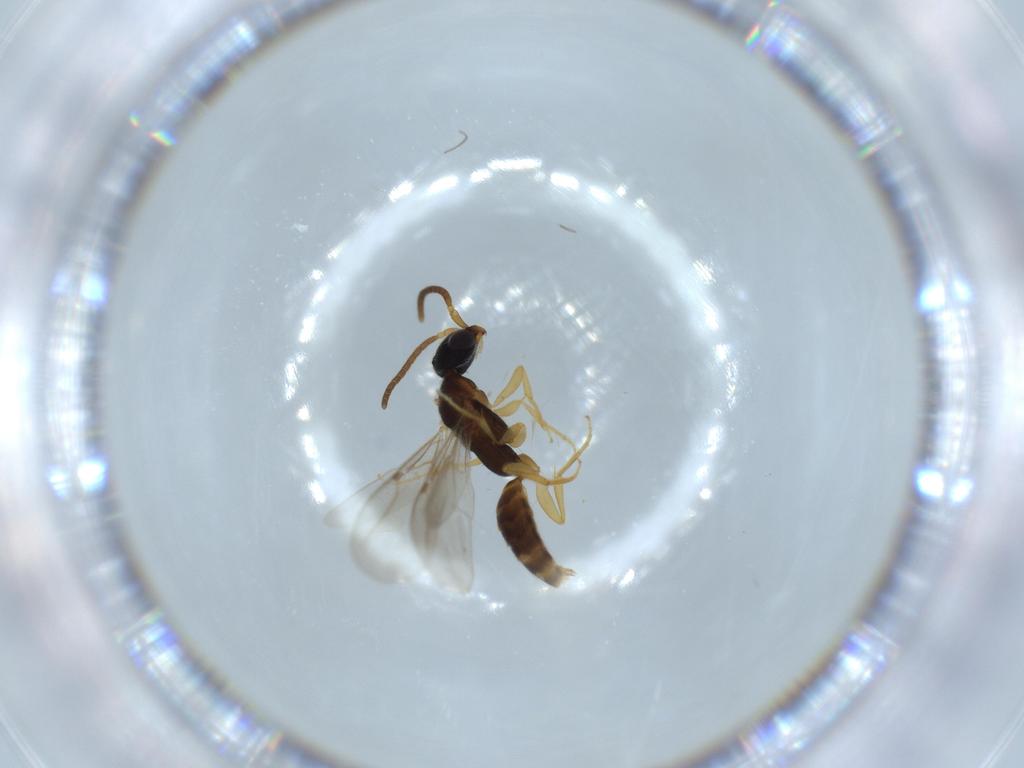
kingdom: Animalia
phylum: Arthropoda
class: Insecta
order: Hymenoptera
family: Bethylidae
